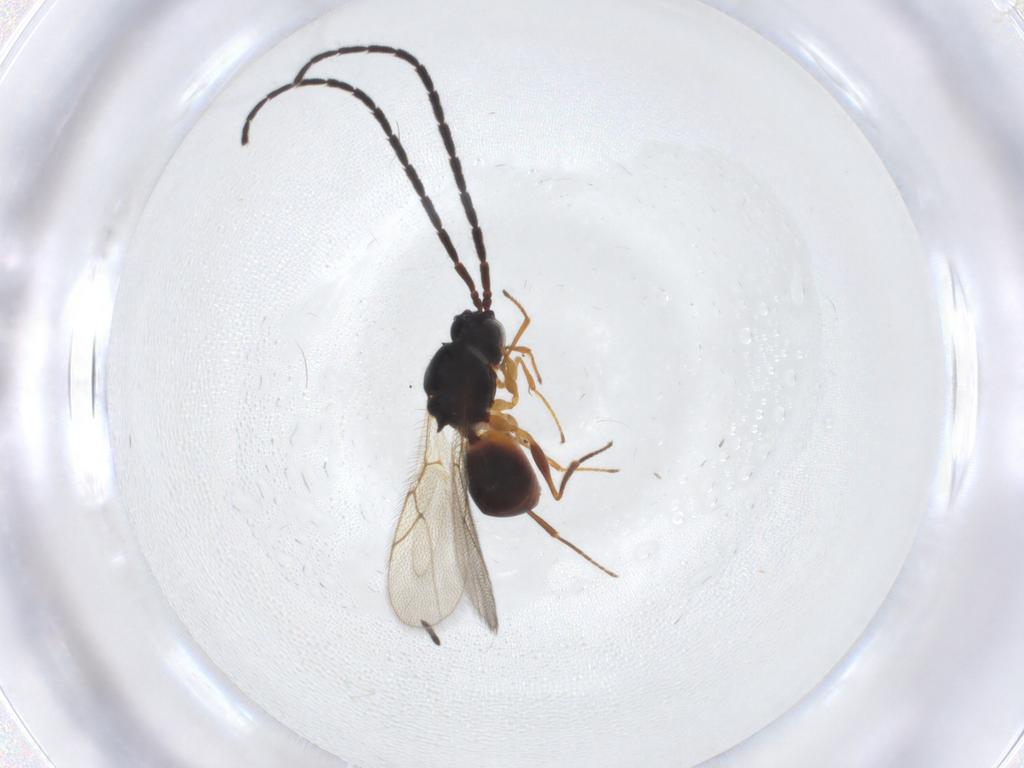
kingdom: Animalia
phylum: Arthropoda
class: Insecta
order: Hymenoptera
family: Figitidae
